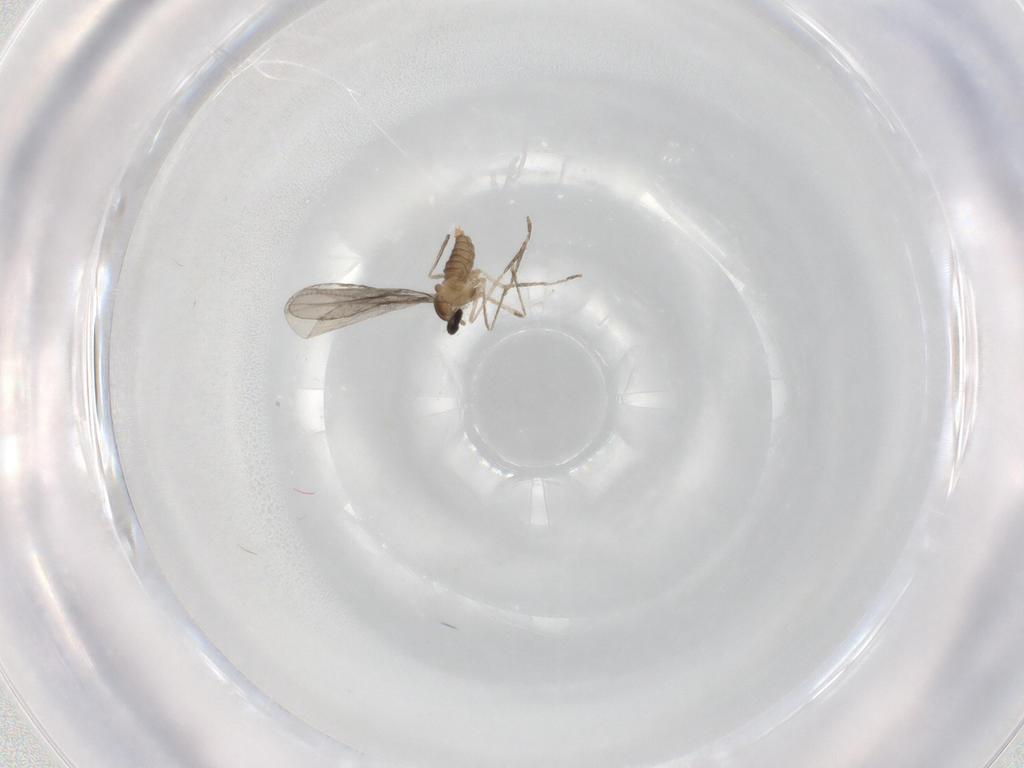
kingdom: Animalia
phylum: Arthropoda
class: Insecta
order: Diptera
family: Cecidomyiidae
